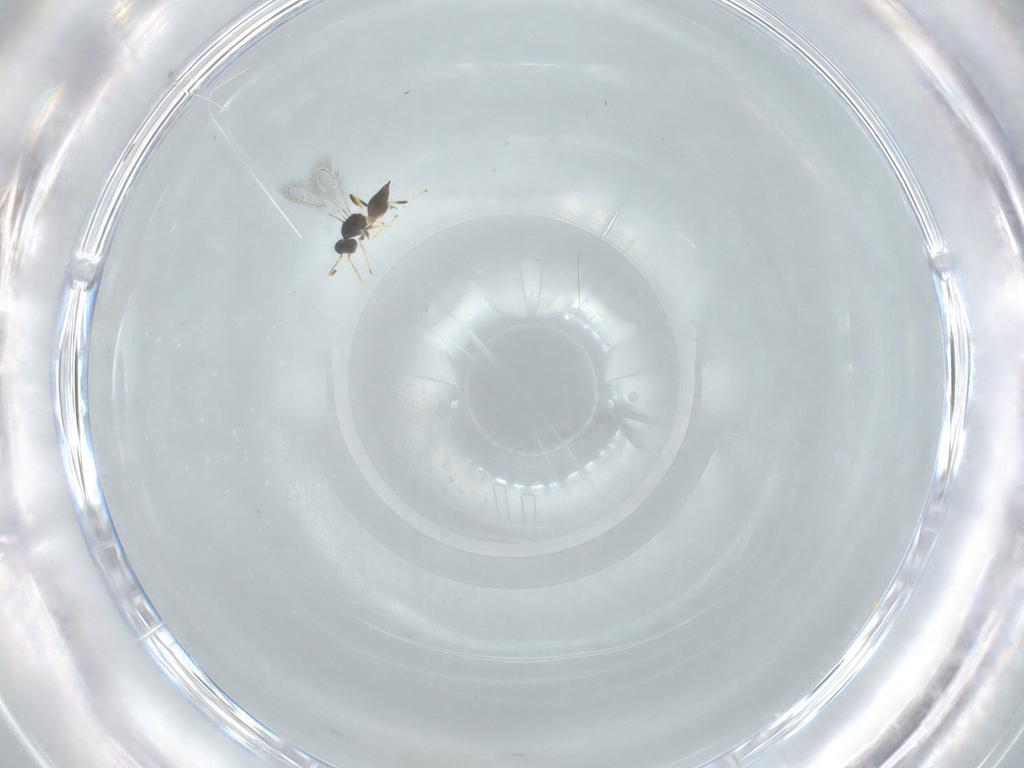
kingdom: Animalia
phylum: Arthropoda
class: Insecta
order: Hymenoptera
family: Mymaridae
